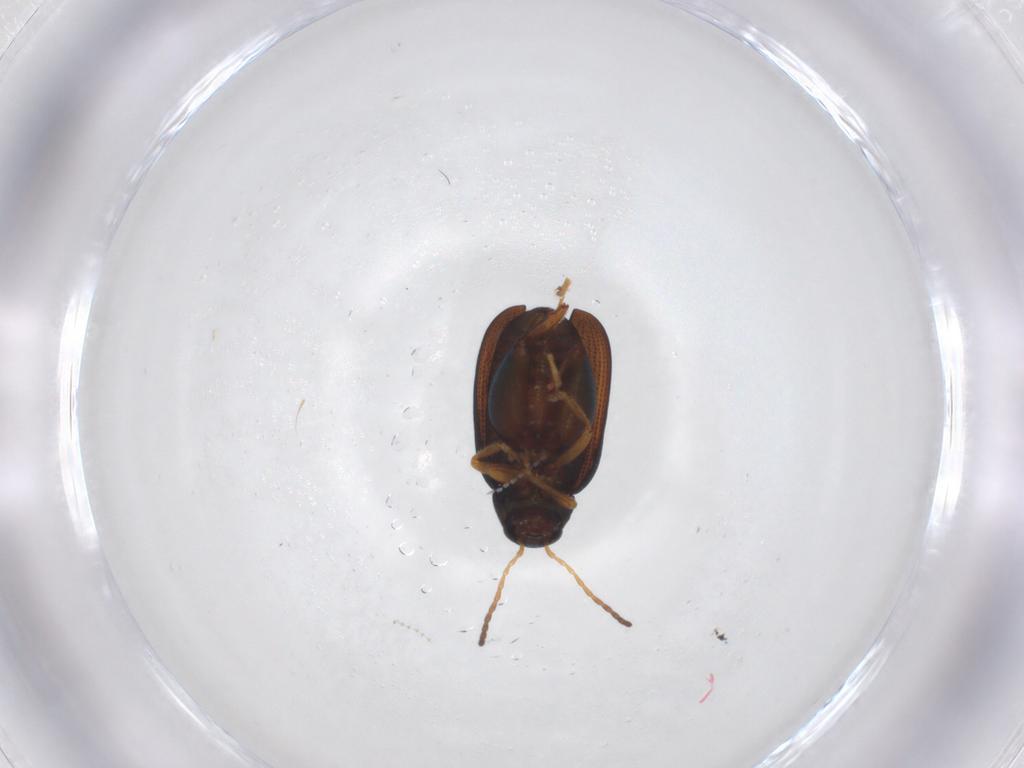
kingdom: Animalia
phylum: Arthropoda
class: Insecta
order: Coleoptera
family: Chrysomelidae
